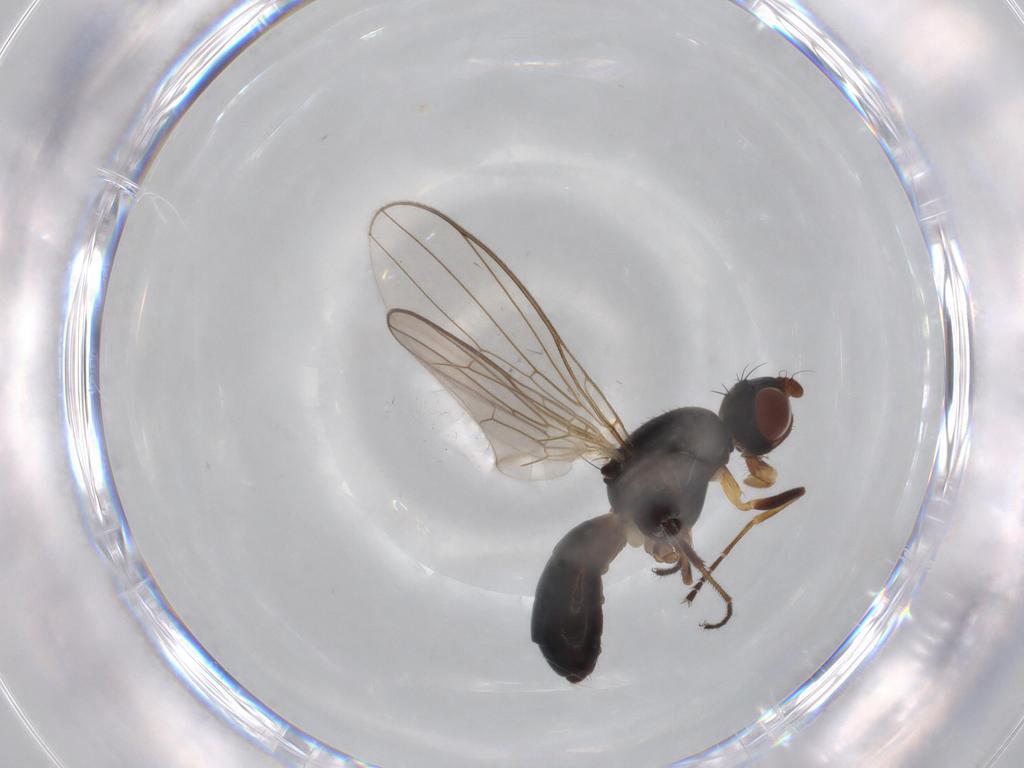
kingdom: Animalia
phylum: Arthropoda
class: Insecta
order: Diptera
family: Sepsidae
